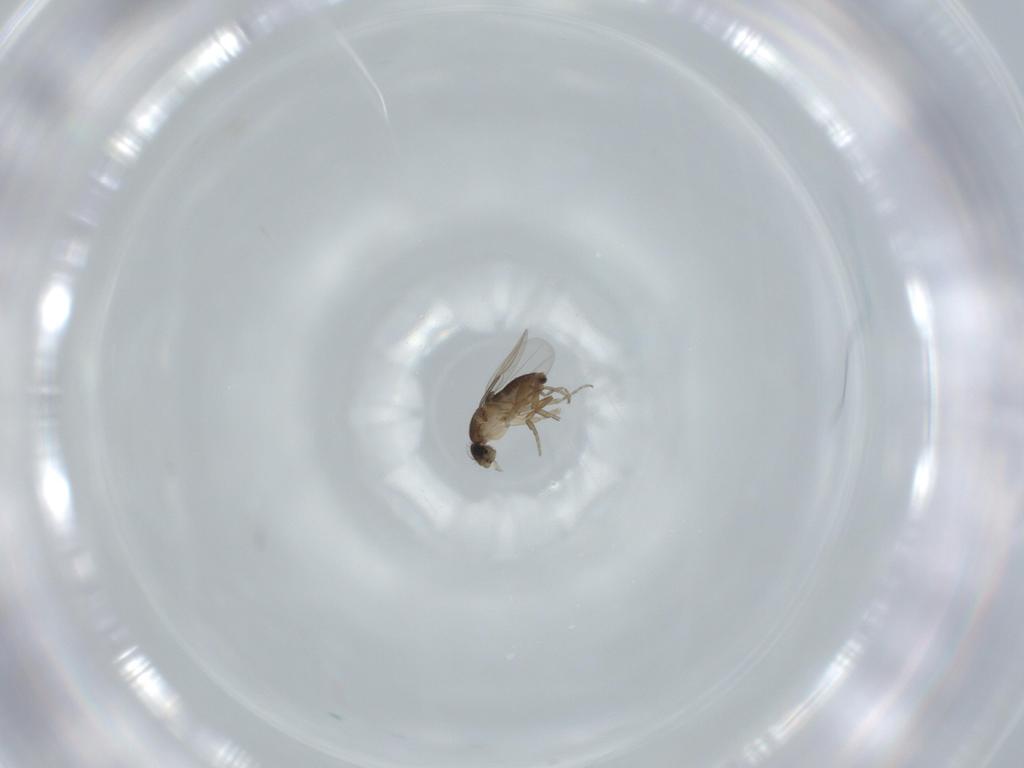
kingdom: Animalia
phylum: Arthropoda
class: Insecta
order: Diptera
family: Phoridae
